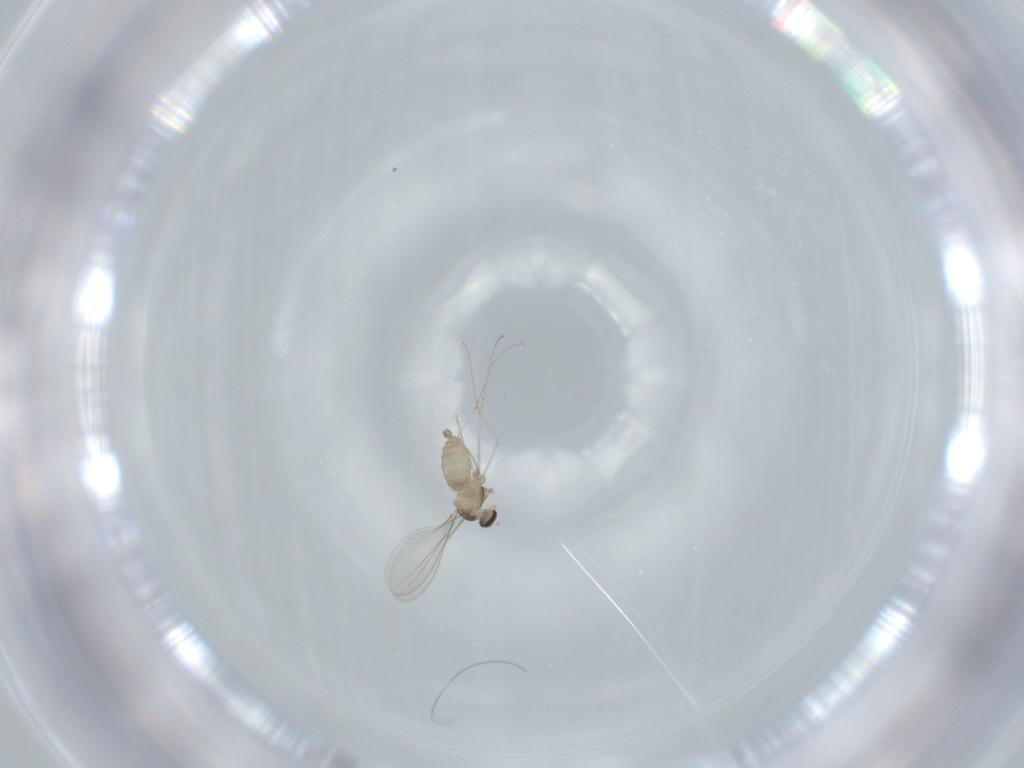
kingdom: Animalia
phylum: Arthropoda
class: Insecta
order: Diptera
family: Cecidomyiidae
